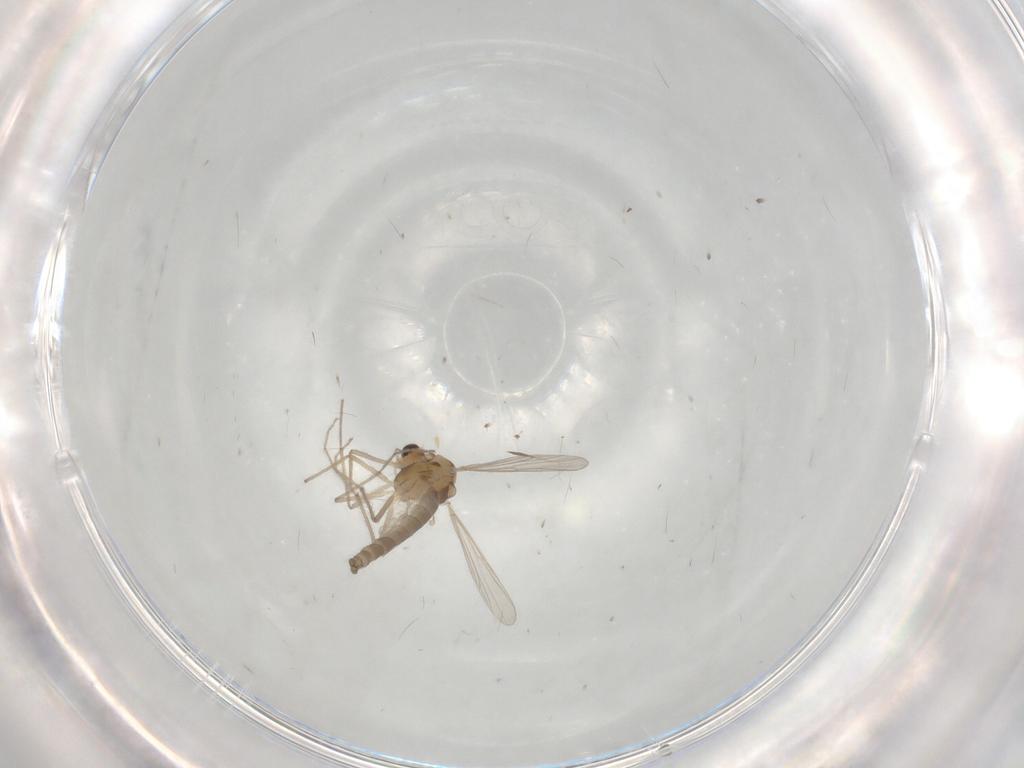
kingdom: Animalia
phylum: Arthropoda
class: Insecta
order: Diptera
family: Chironomidae
